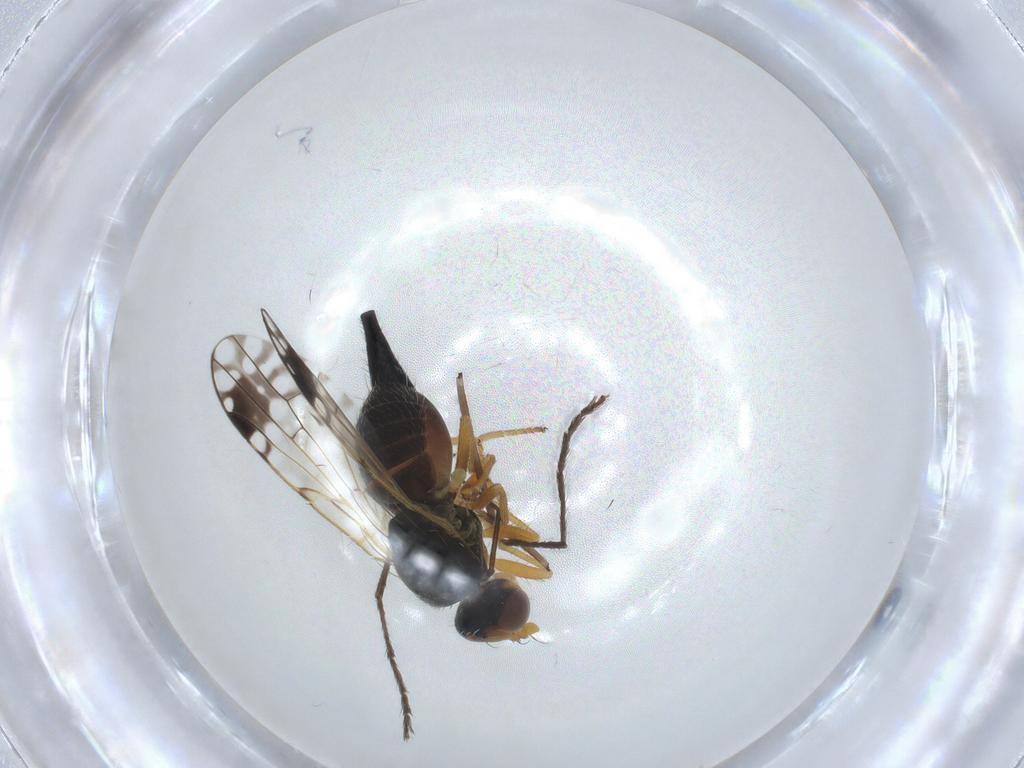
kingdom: Animalia
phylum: Arthropoda
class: Insecta
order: Diptera
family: Tephritidae
